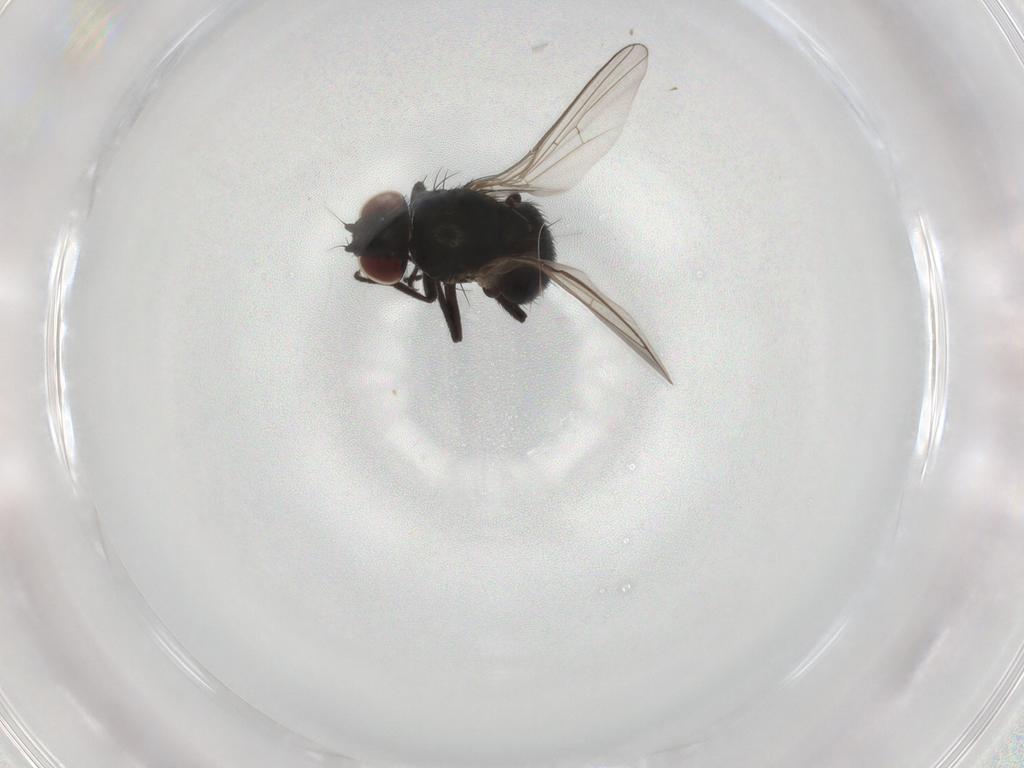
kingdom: Animalia
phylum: Arthropoda
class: Insecta
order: Diptera
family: Agromyzidae
